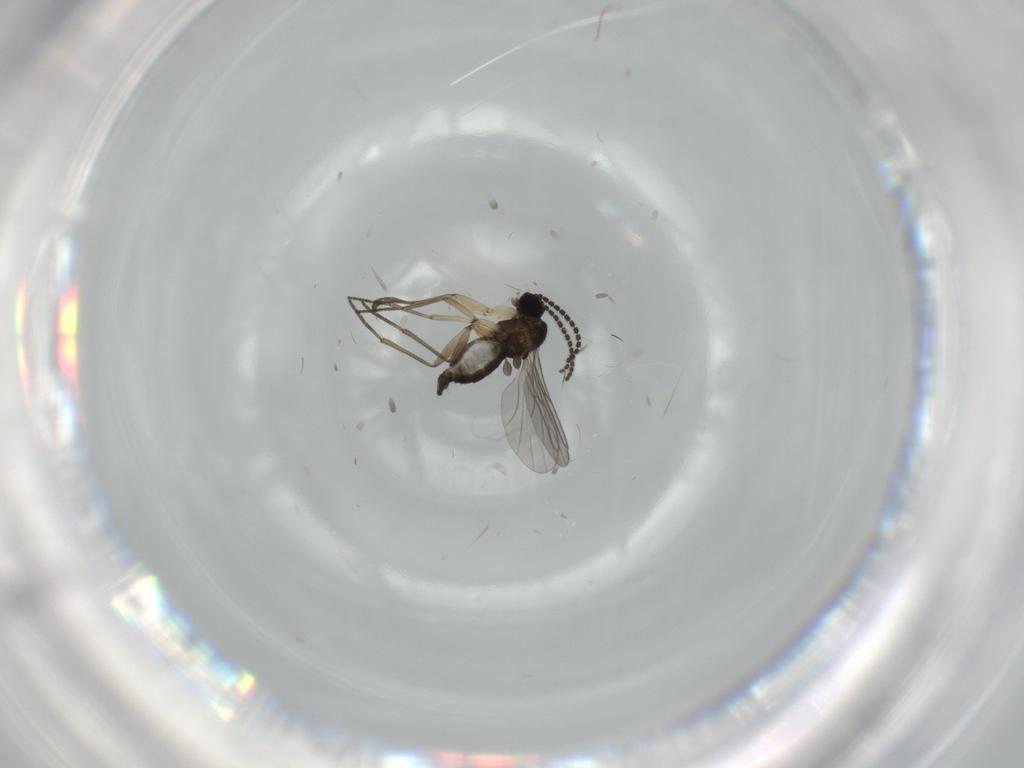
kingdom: Animalia
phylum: Arthropoda
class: Insecta
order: Diptera
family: Sciaridae
